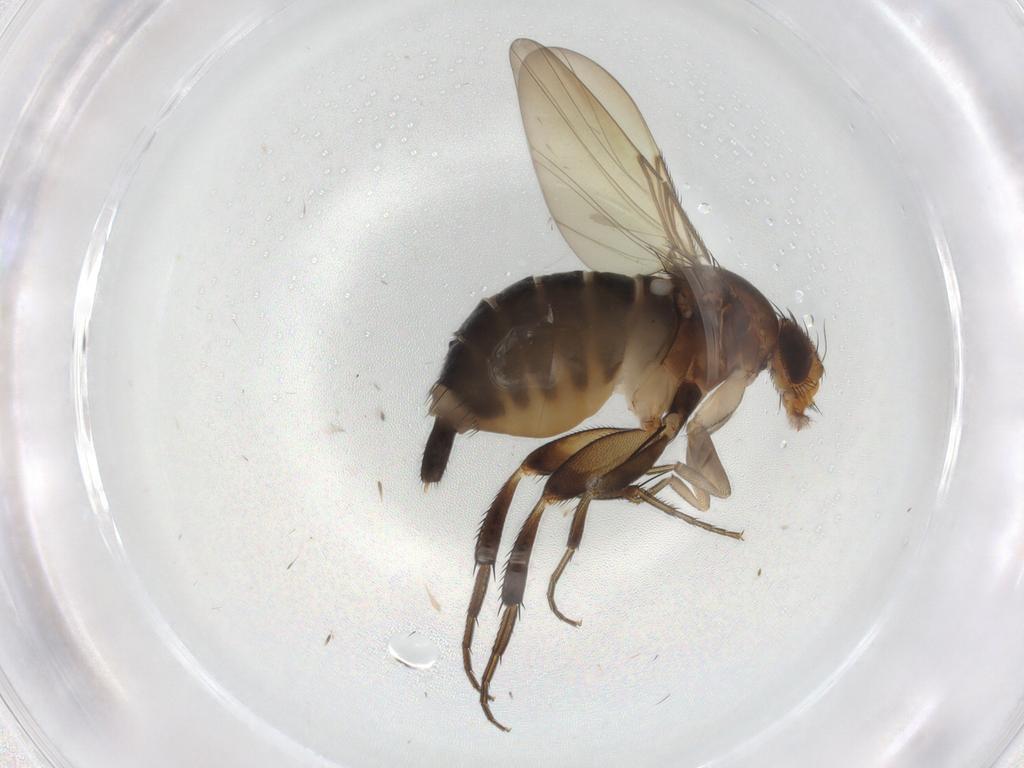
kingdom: Animalia
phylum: Arthropoda
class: Insecta
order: Diptera
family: Phoridae
